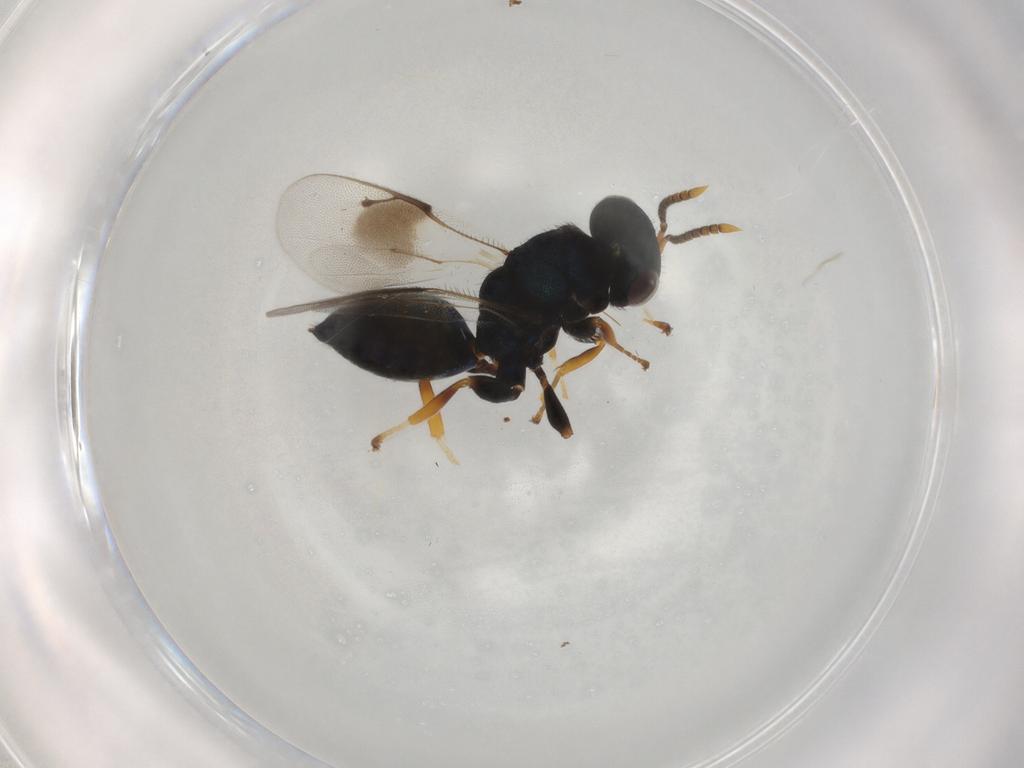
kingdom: Animalia
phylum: Arthropoda
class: Insecta
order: Hymenoptera
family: Pteromalidae
